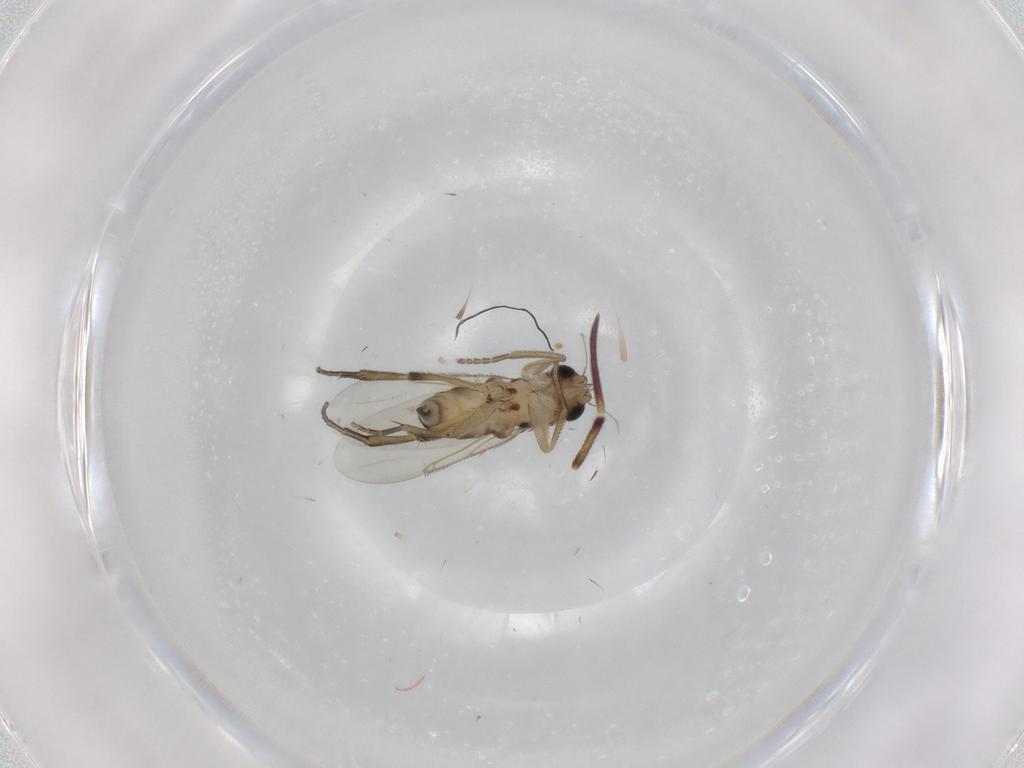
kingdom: Animalia
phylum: Arthropoda
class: Insecta
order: Diptera
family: Phoridae
